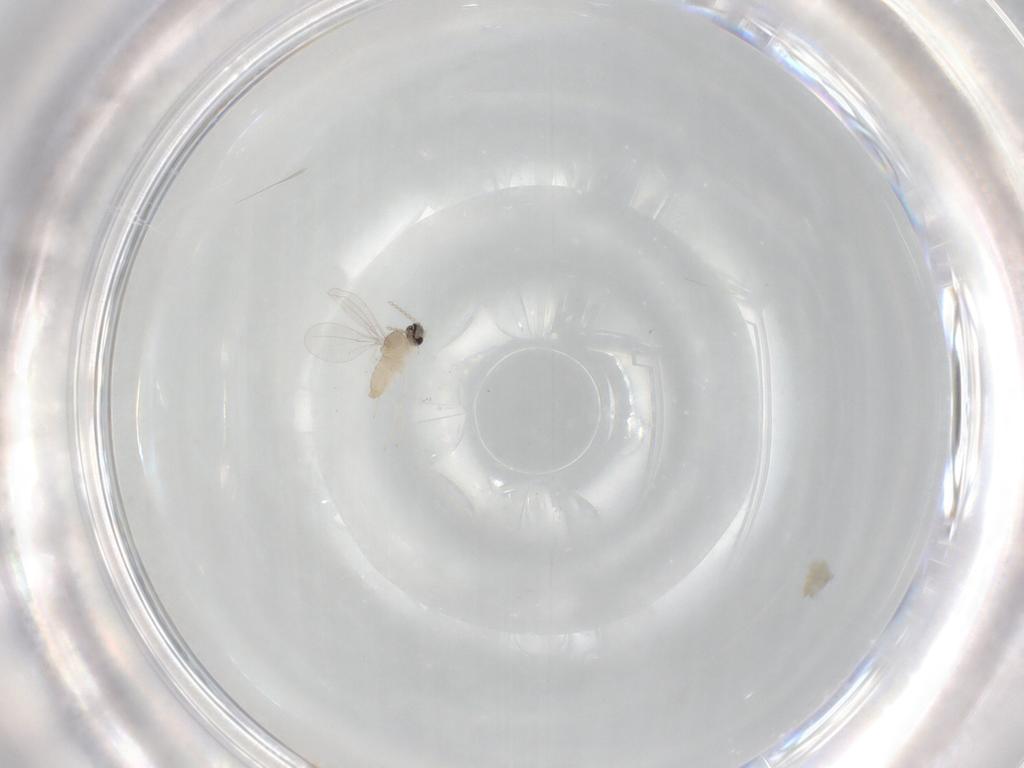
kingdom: Animalia
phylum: Arthropoda
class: Insecta
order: Diptera
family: Cecidomyiidae
